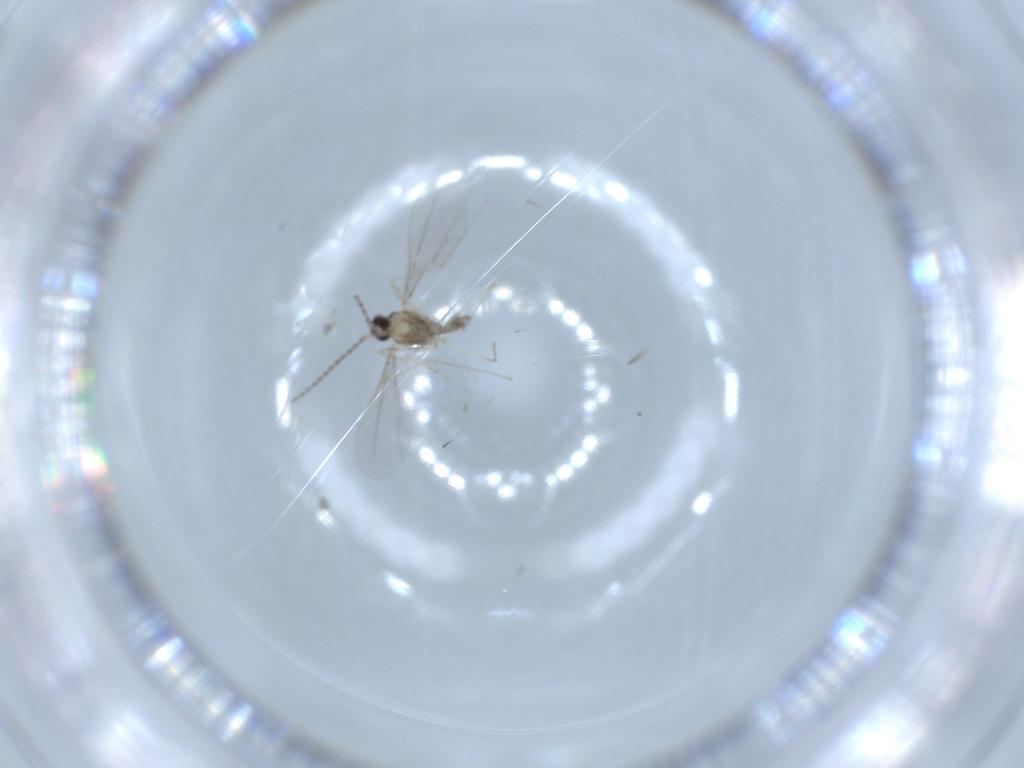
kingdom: Animalia
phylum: Arthropoda
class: Insecta
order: Diptera
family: Cecidomyiidae
